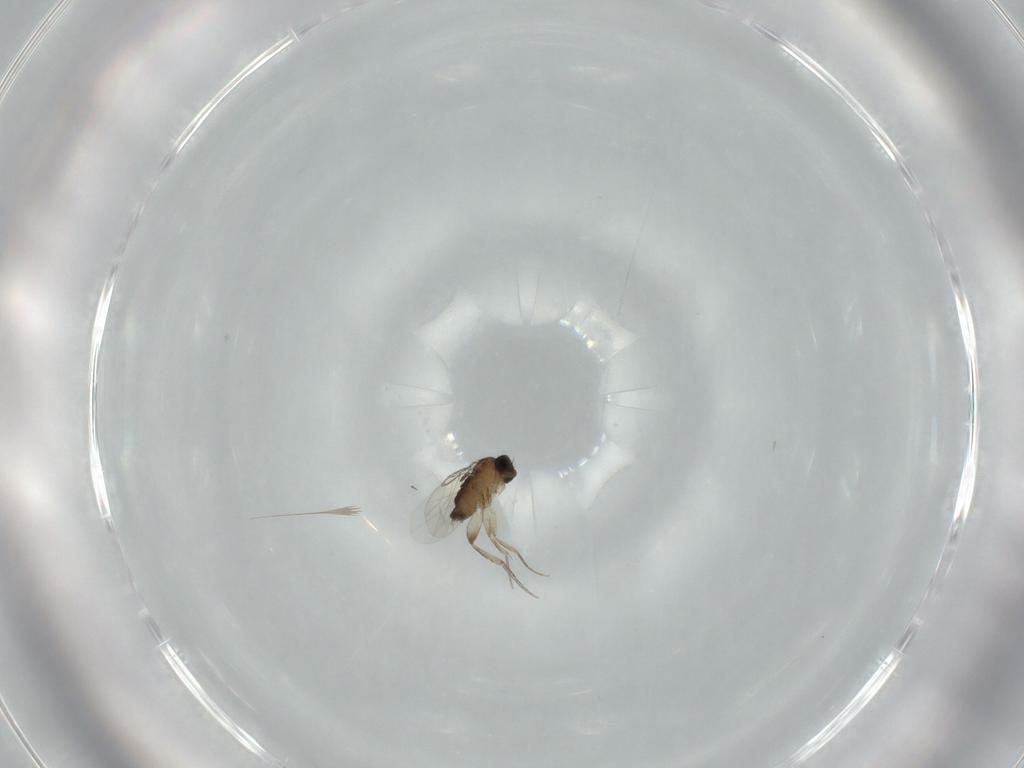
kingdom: Animalia
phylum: Arthropoda
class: Insecta
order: Diptera
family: Phoridae
